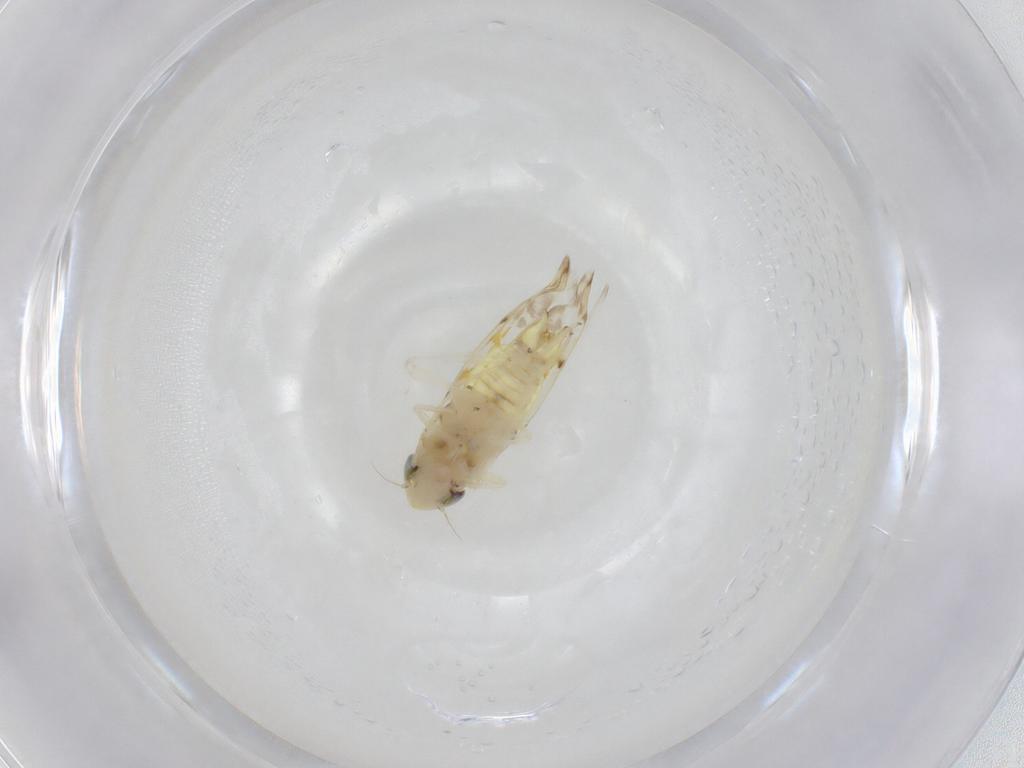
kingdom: Animalia
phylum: Arthropoda
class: Insecta
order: Hemiptera
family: Cicadellidae
